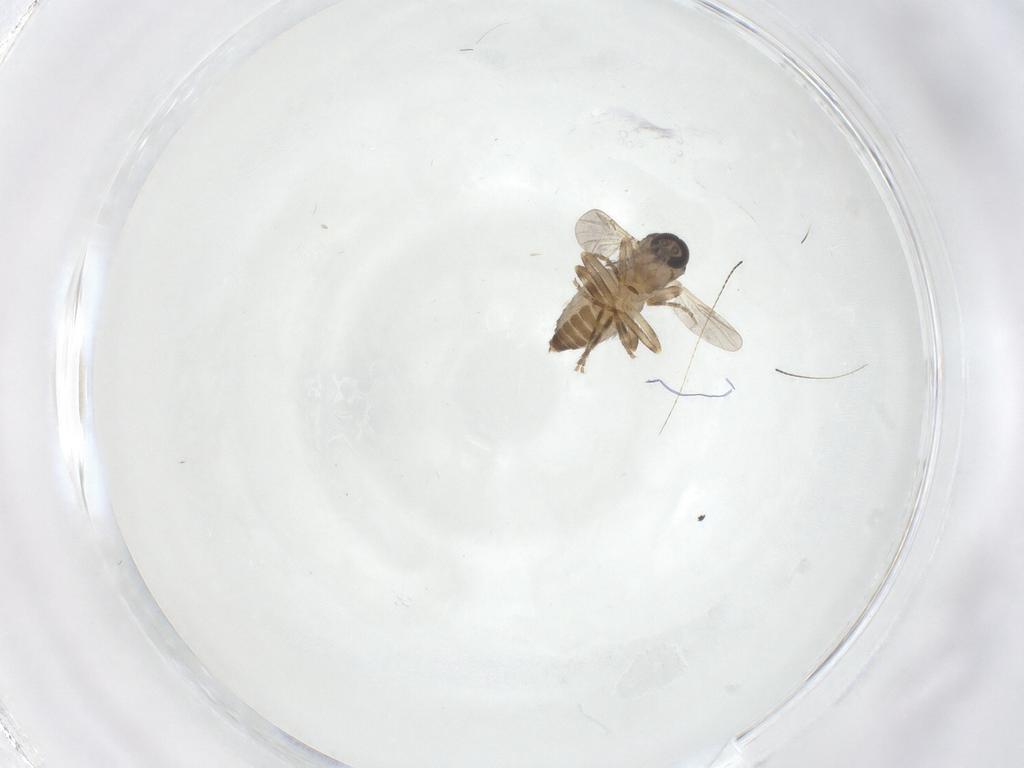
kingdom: Animalia
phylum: Arthropoda
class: Insecta
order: Diptera
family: Ceratopogonidae
